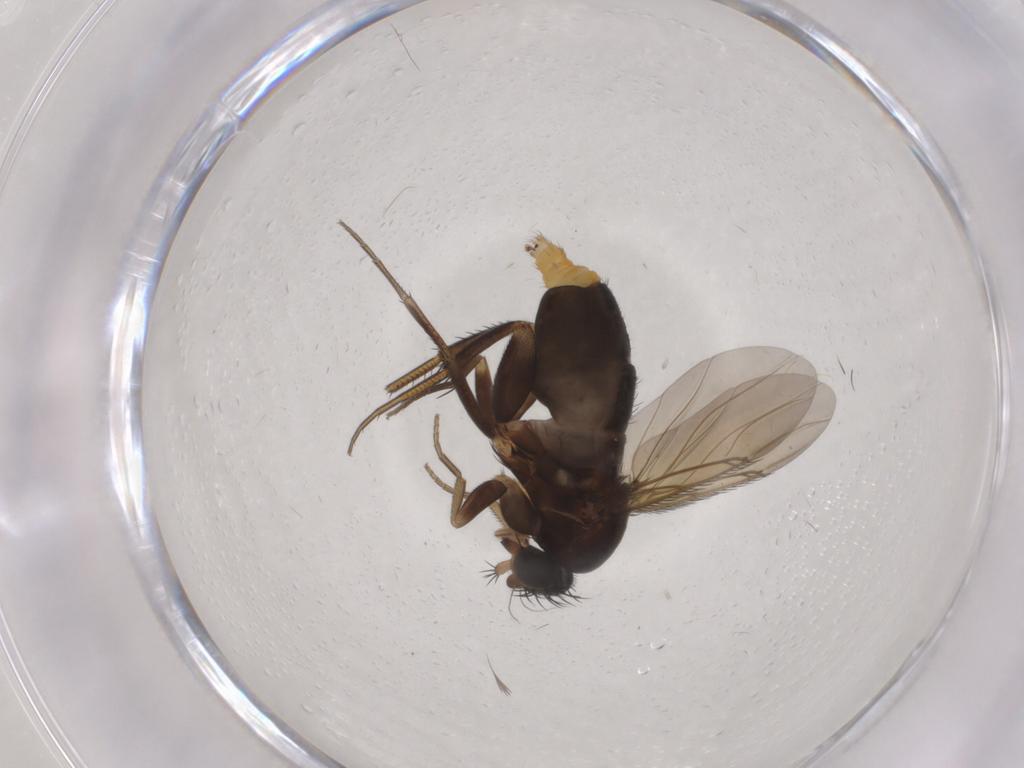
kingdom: Animalia
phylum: Arthropoda
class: Insecta
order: Diptera
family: Phoridae
